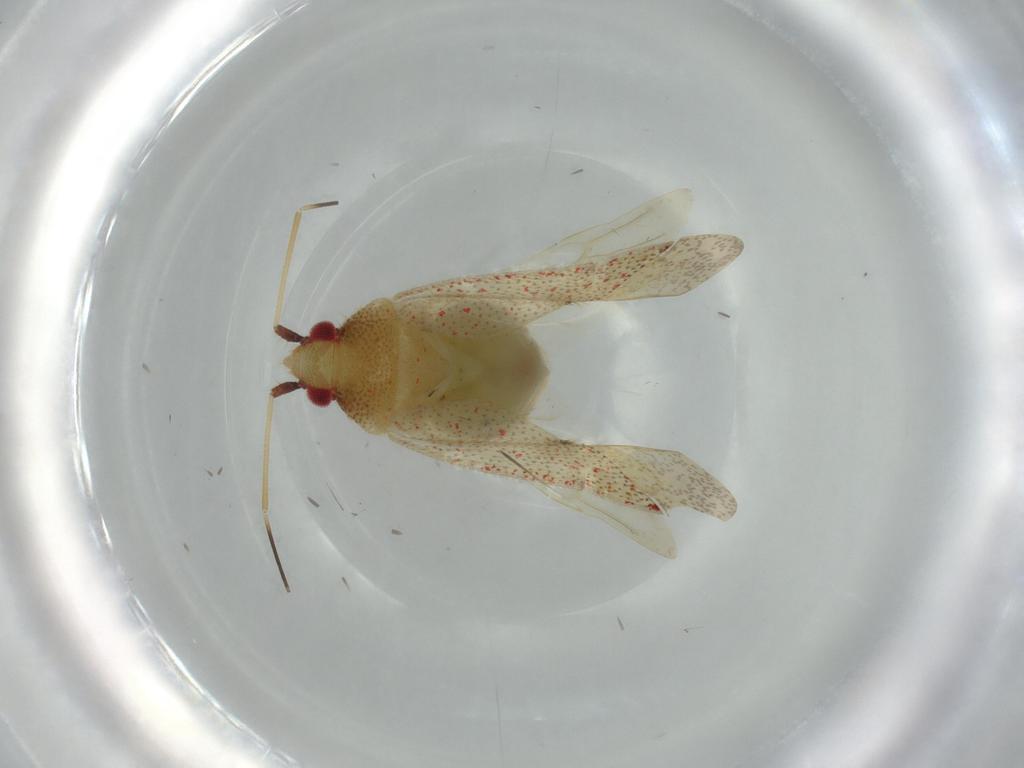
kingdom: Animalia
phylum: Arthropoda
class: Insecta
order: Hemiptera
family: Miridae
